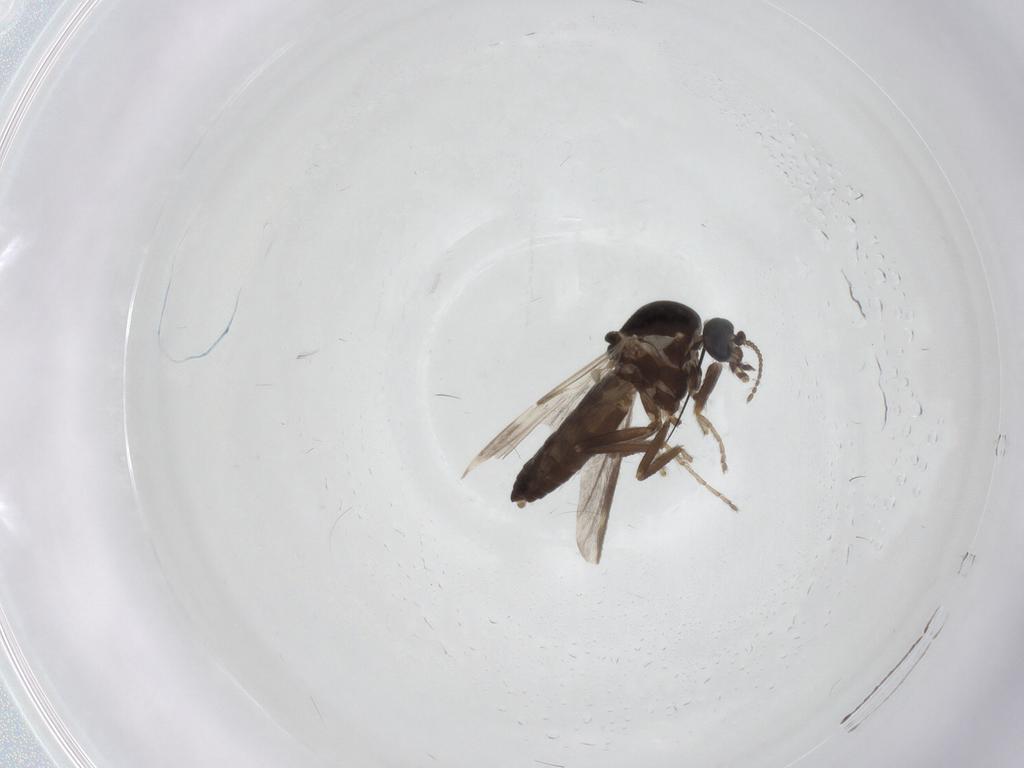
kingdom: Animalia
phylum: Arthropoda
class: Insecta
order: Diptera
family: Ceratopogonidae
